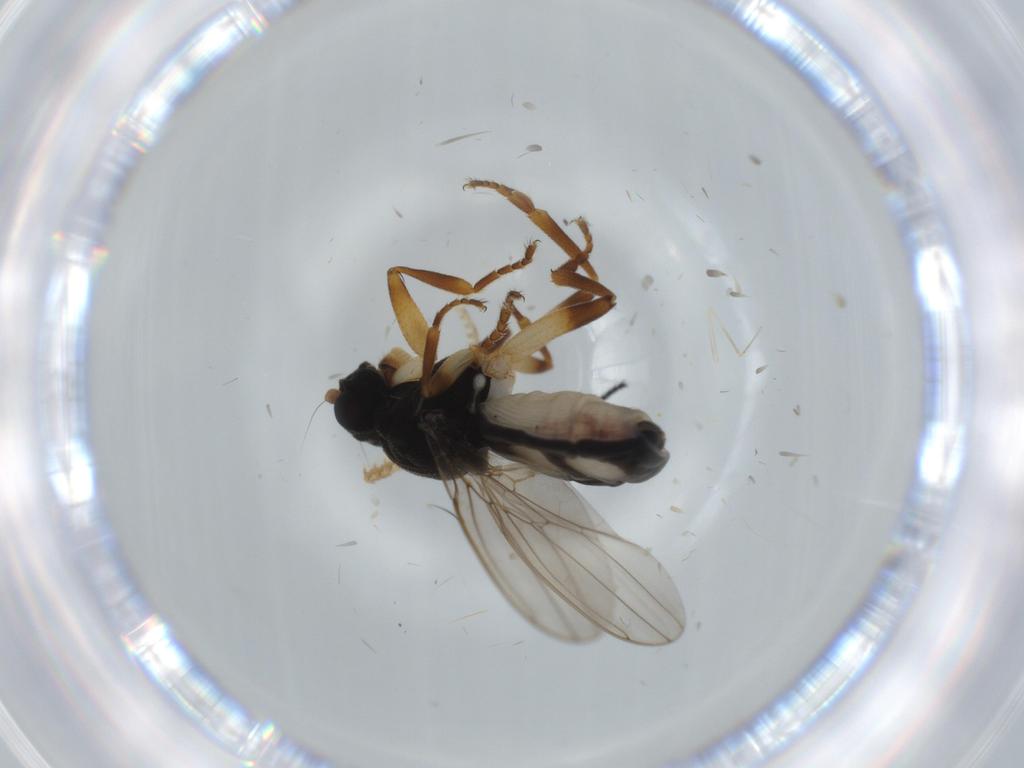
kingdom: Animalia
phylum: Arthropoda
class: Insecta
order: Diptera
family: Sphaeroceridae
